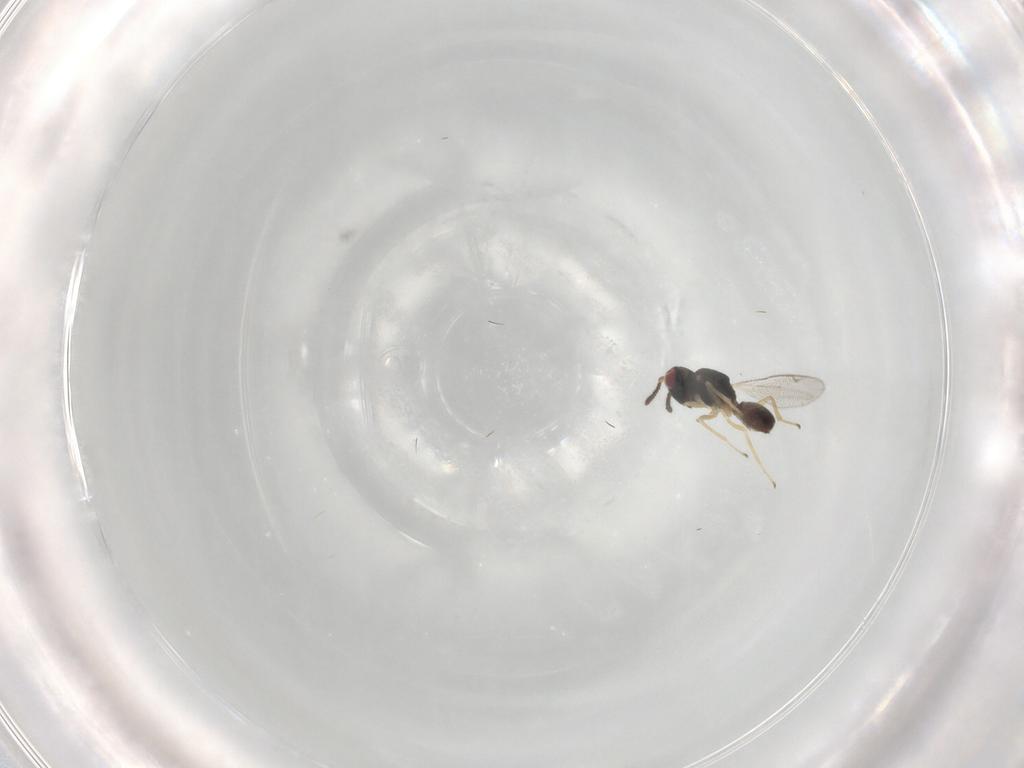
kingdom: Animalia
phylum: Arthropoda
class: Insecta
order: Hymenoptera
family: Pteromalidae
